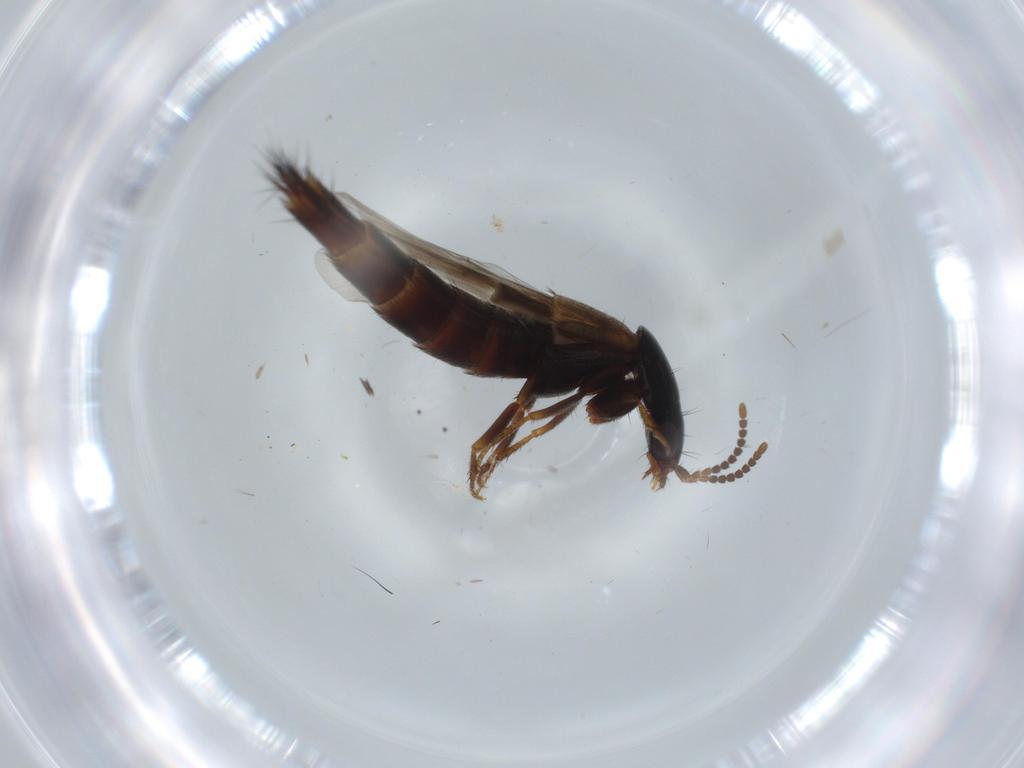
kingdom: Animalia
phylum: Arthropoda
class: Insecta
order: Coleoptera
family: Staphylinidae
